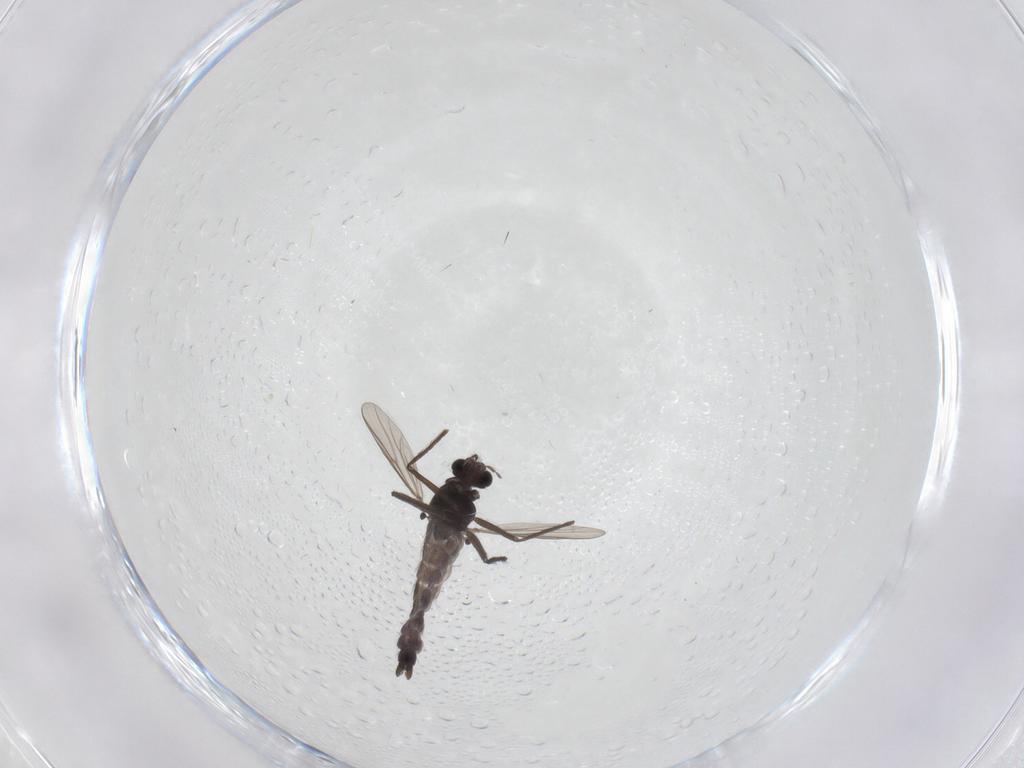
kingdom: Animalia
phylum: Arthropoda
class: Insecta
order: Diptera
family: Chironomidae
